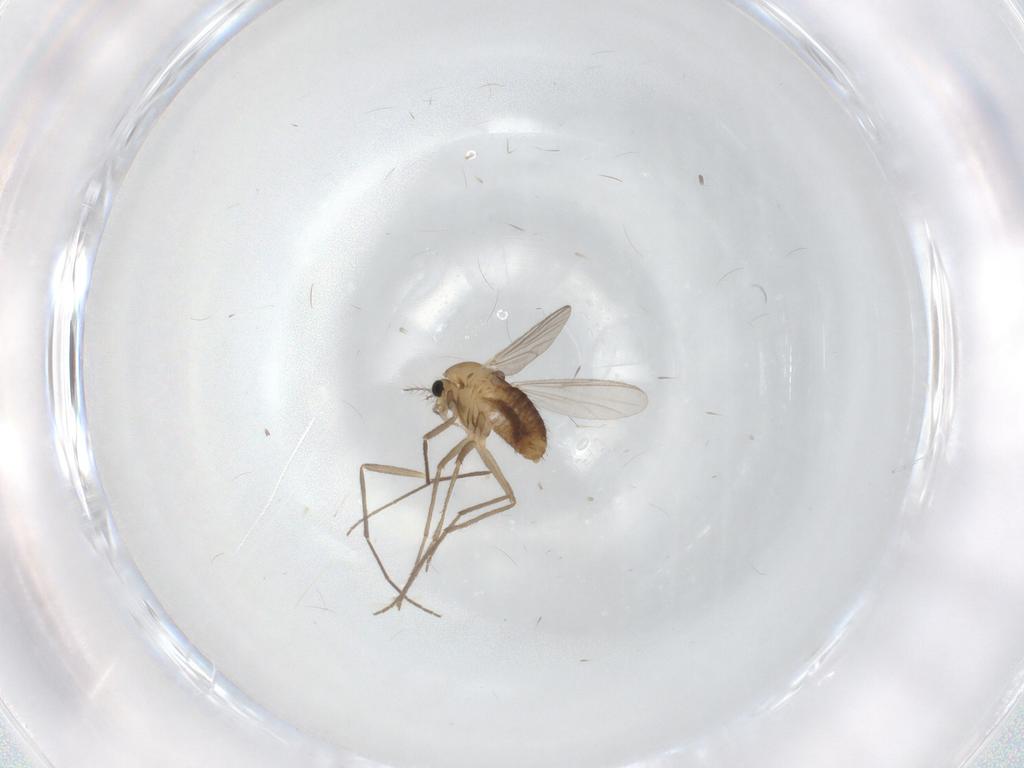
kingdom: Animalia
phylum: Arthropoda
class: Insecta
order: Diptera
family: Chironomidae
